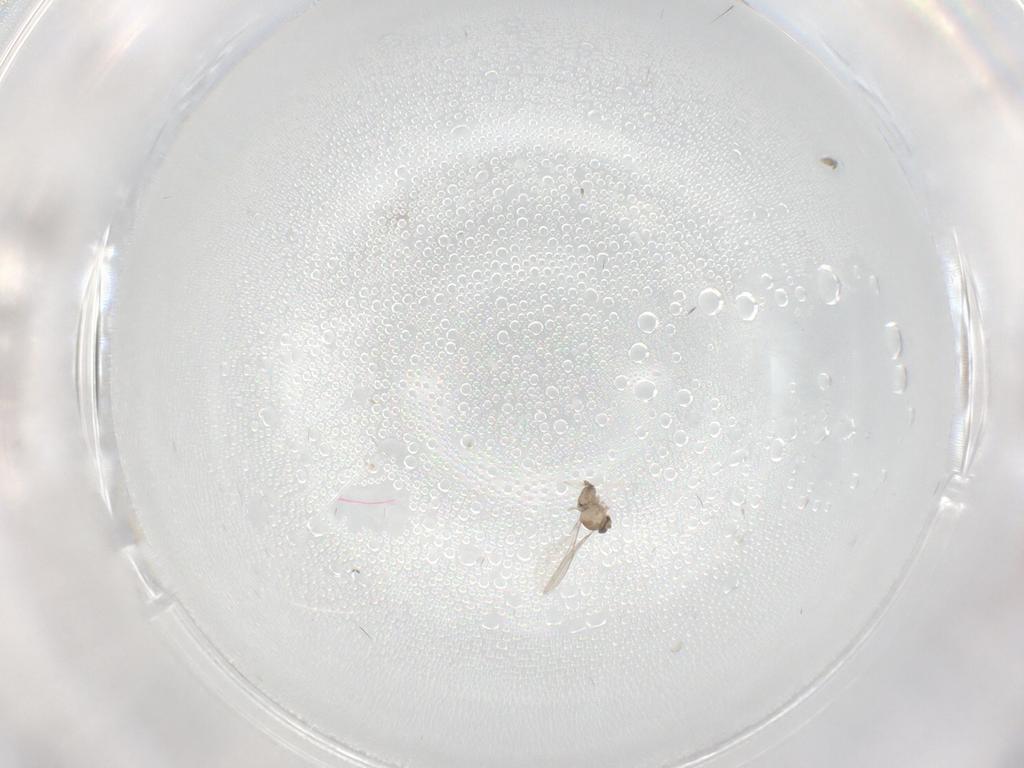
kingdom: Animalia
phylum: Arthropoda
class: Insecta
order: Diptera
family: Cecidomyiidae
